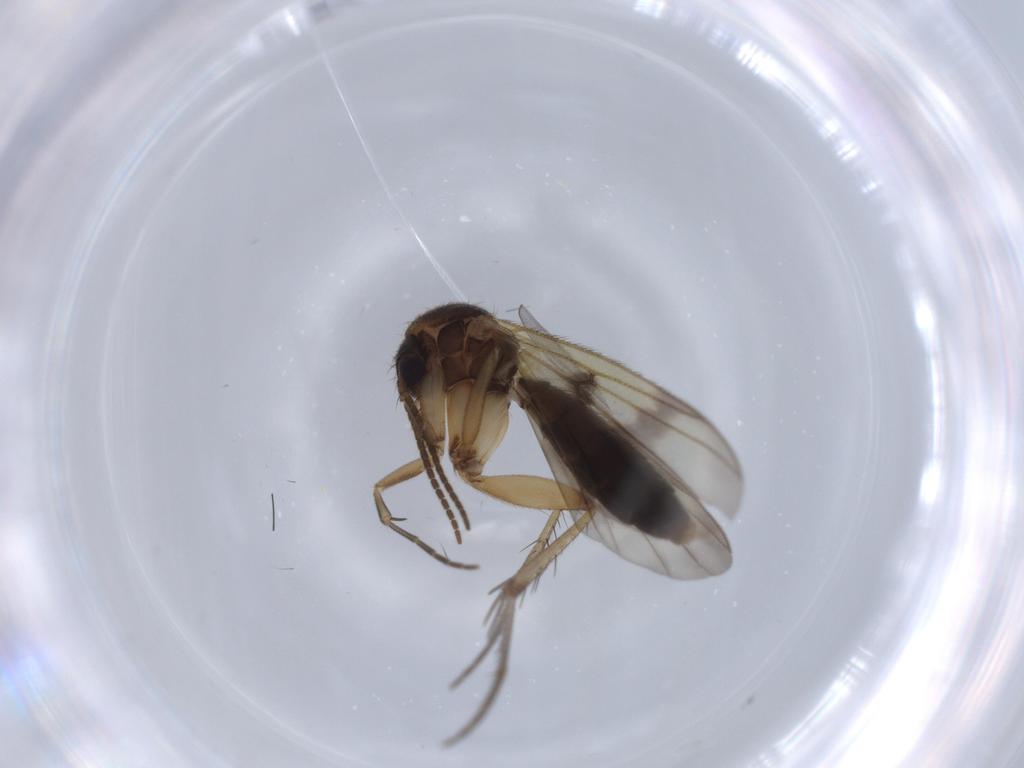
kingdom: Animalia
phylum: Arthropoda
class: Insecta
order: Diptera
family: Mycetophilidae
